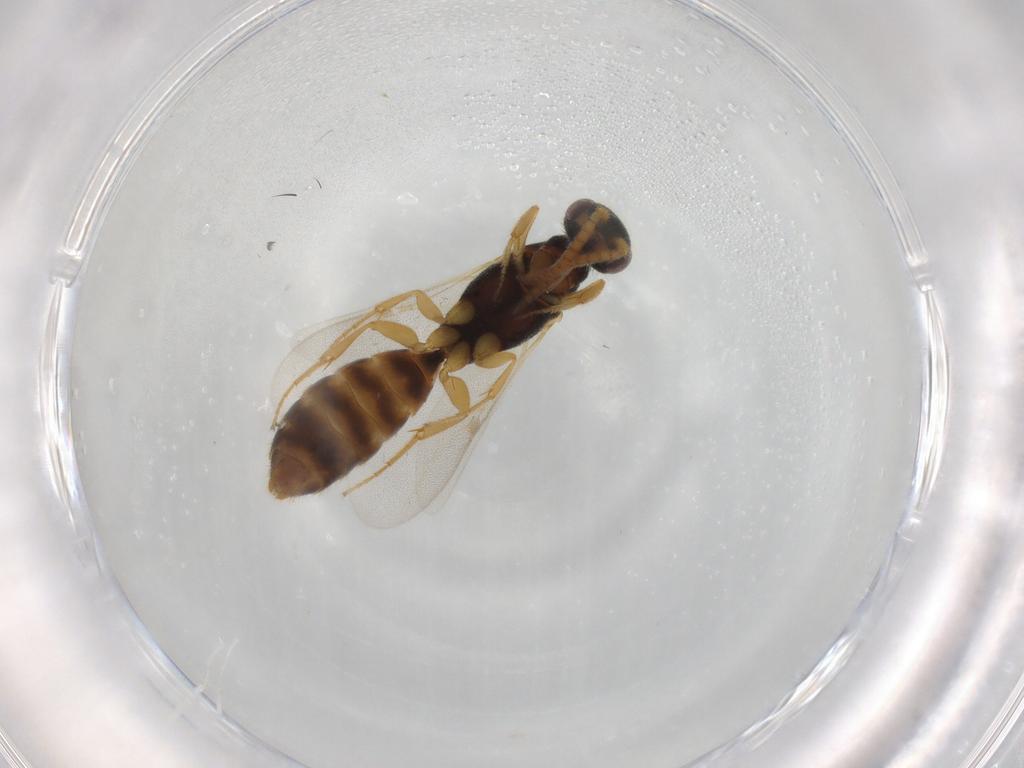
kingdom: Animalia
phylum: Arthropoda
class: Insecta
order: Hymenoptera
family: Bethylidae
